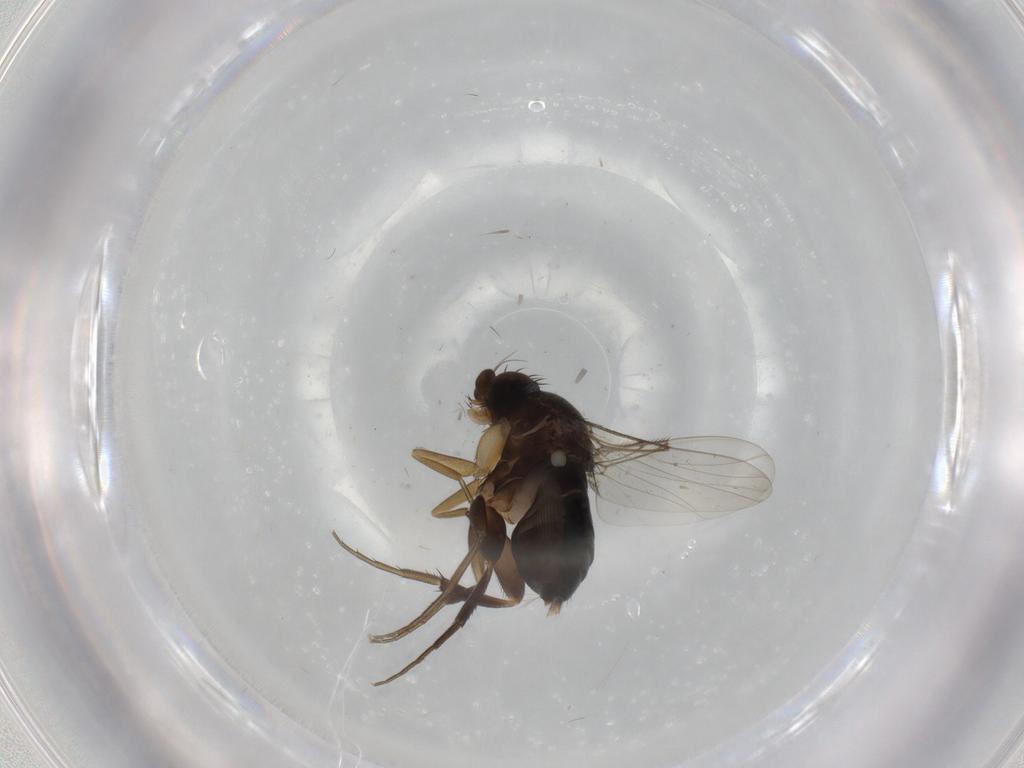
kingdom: Animalia
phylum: Arthropoda
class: Insecta
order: Diptera
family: Phoridae
